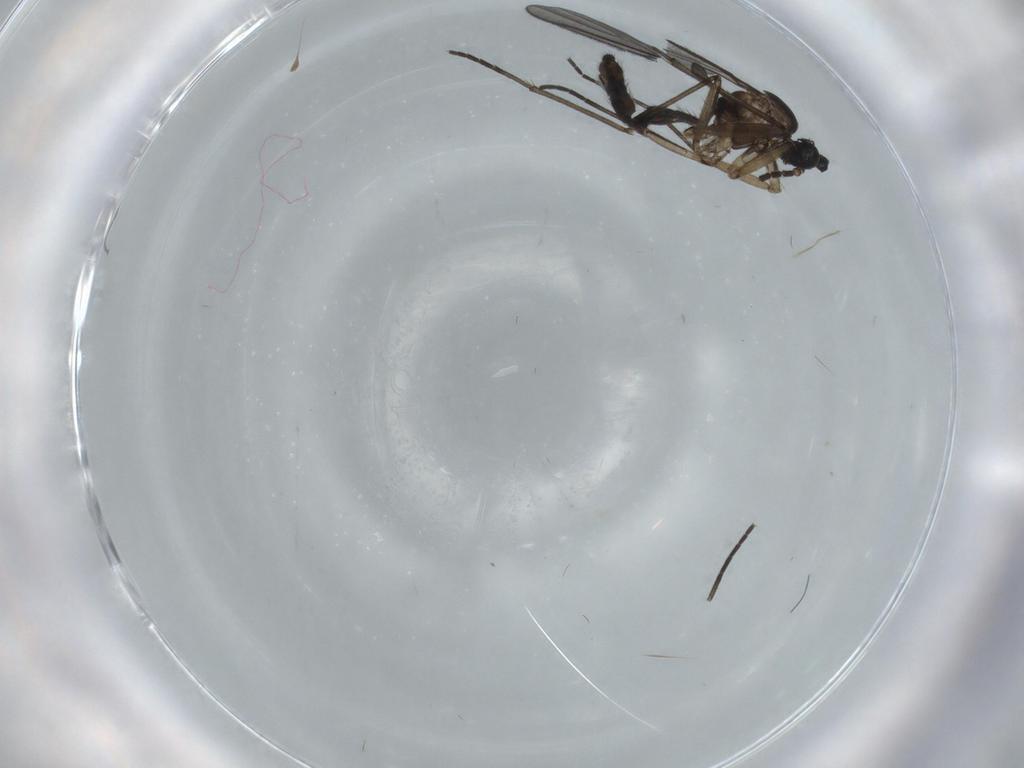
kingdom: Animalia
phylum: Arthropoda
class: Insecta
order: Diptera
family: Sciaridae
